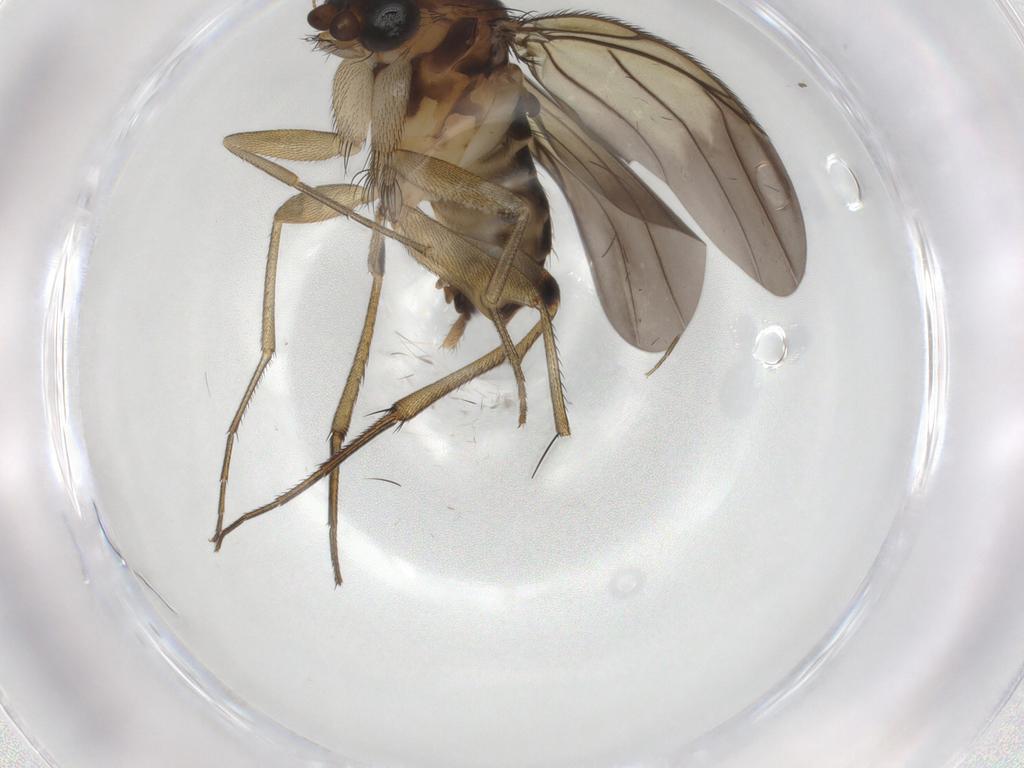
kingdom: Animalia
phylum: Arthropoda
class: Insecta
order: Diptera
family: Phoridae
